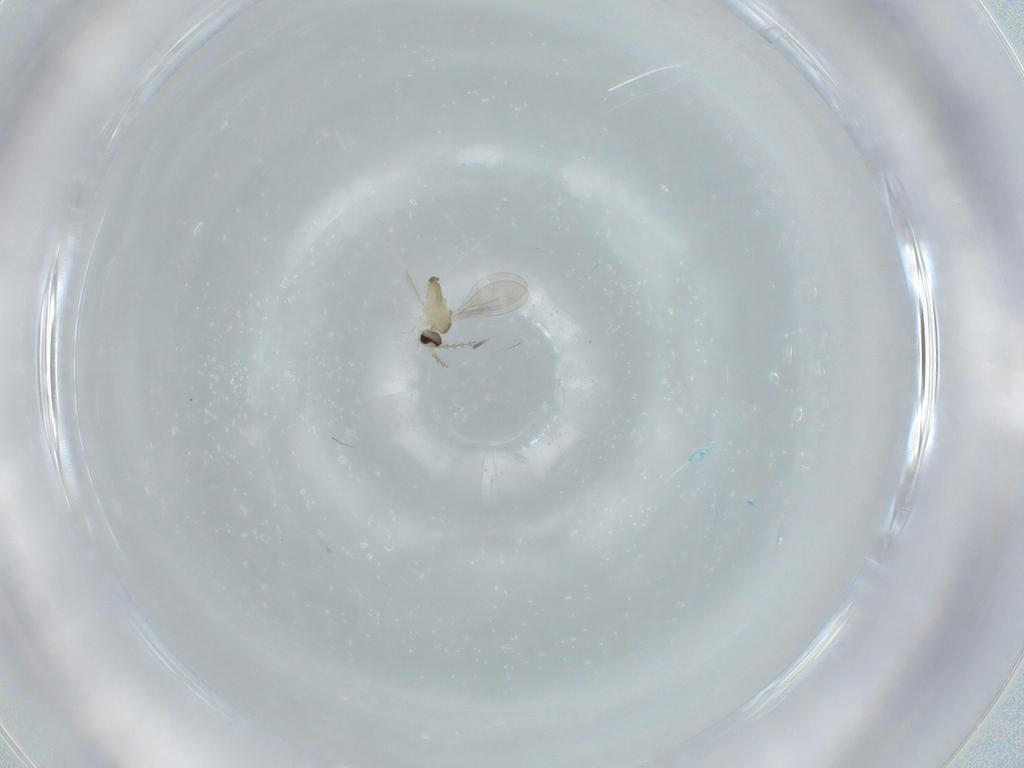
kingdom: Animalia
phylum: Arthropoda
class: Insecta
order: Diptera
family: Cecidomyiidae
